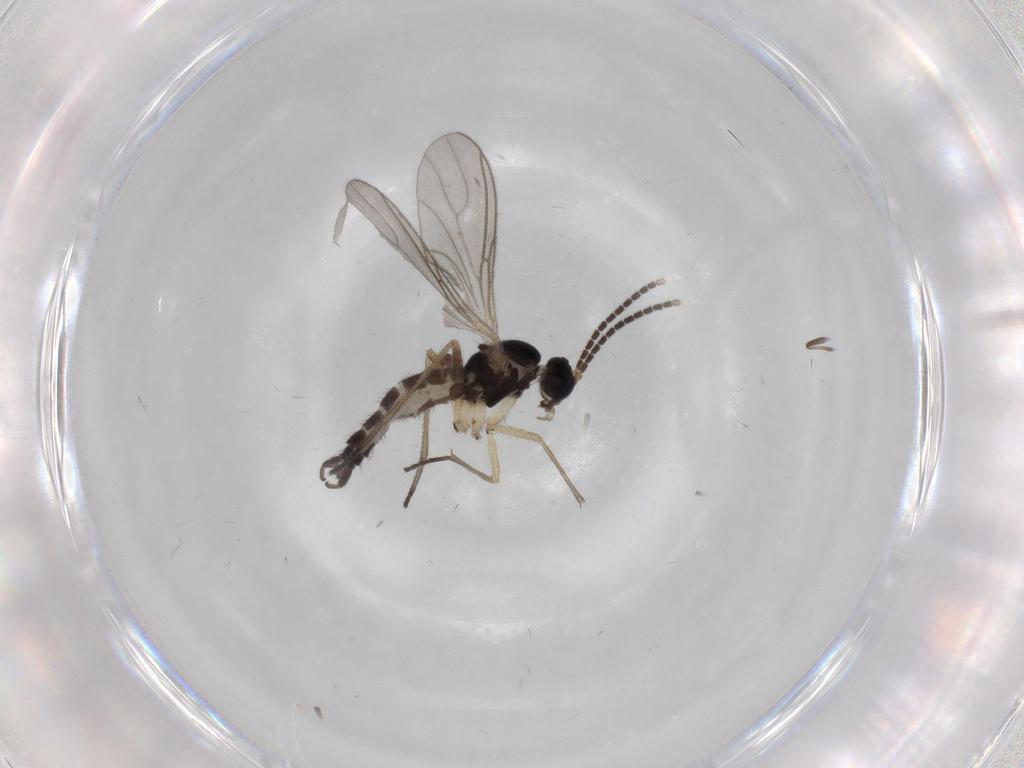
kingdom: Animalia
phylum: Arthropoda
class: Insecta
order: Diptera
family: Sciaridae
